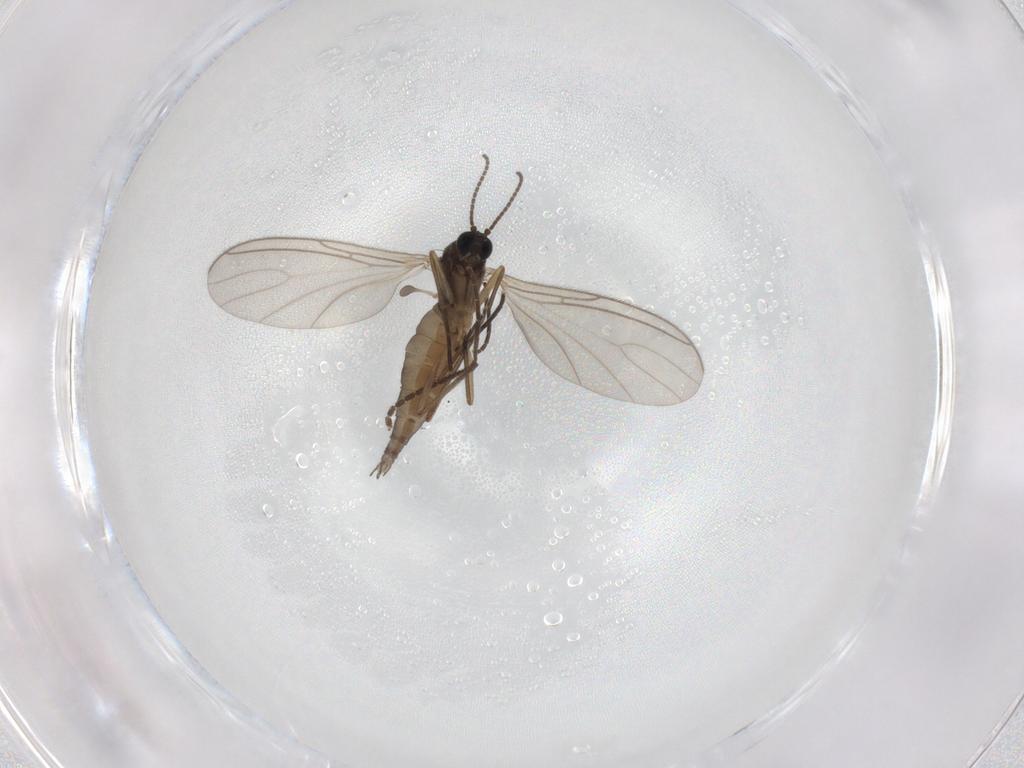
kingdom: Animalia
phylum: Arthropoda
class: Insecta
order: Diptera
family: Sciaridae
